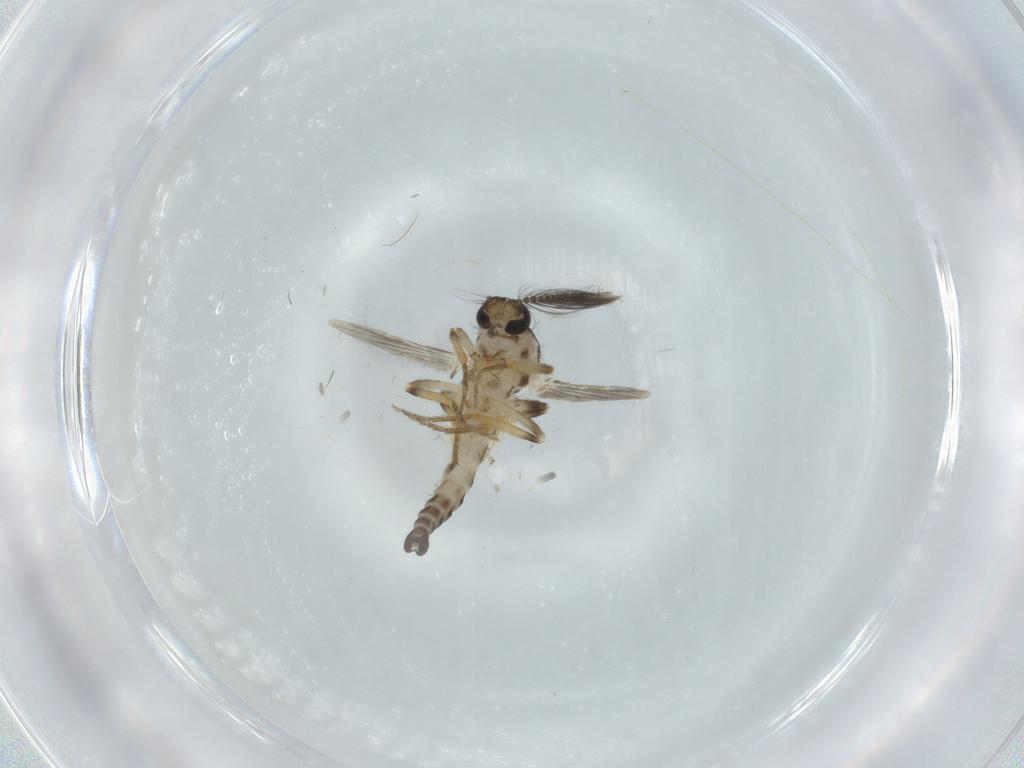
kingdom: Animalia
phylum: Arthropoda
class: Insecta
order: Diptera
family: Ceratopogonidae
